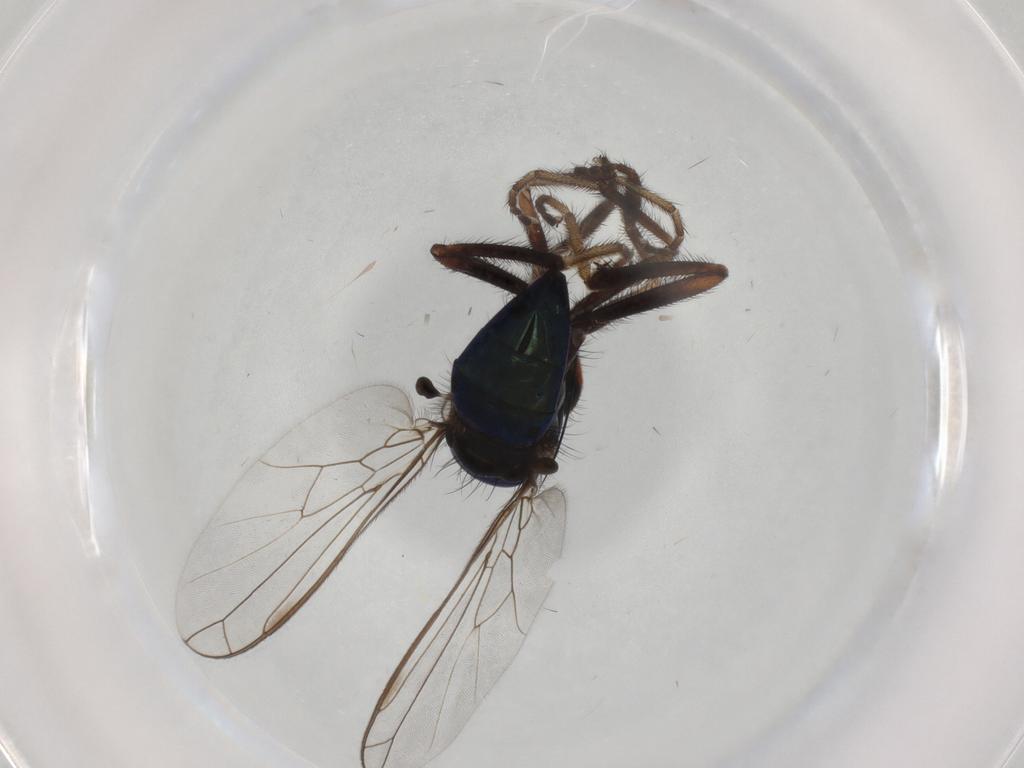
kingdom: Animalia
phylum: Arthropoda
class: Insecta
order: Diptera
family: Empididae
